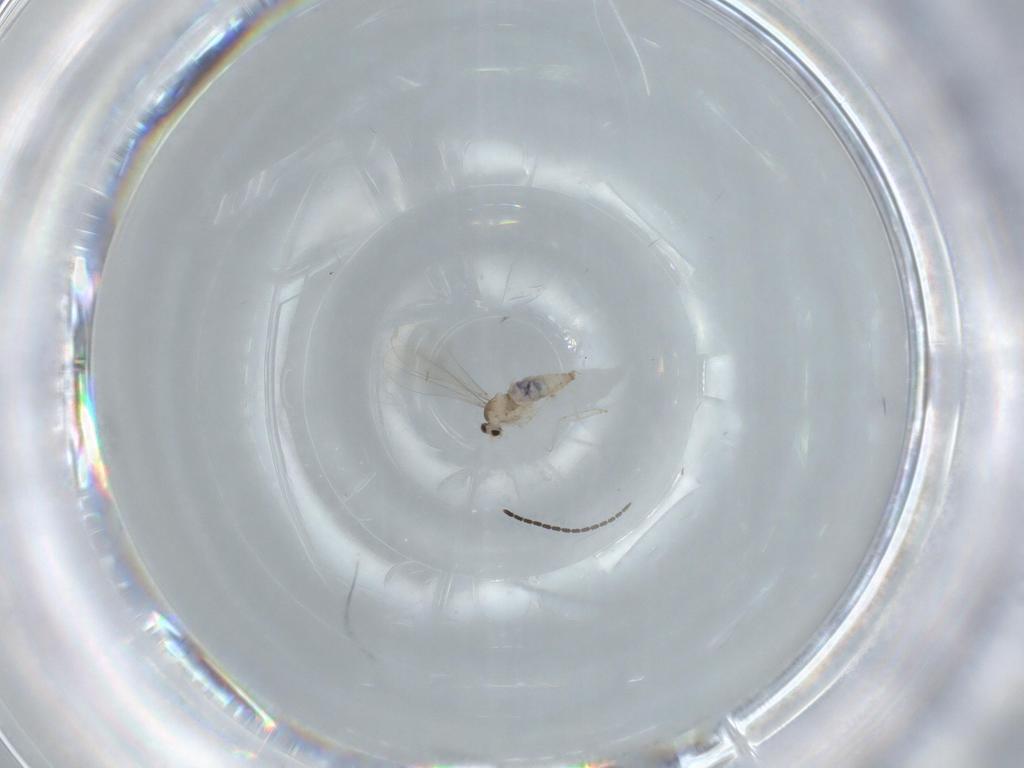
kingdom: Animalia
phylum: Arthropoda
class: Insecta
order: Diptera
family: Cecidomyiidae
